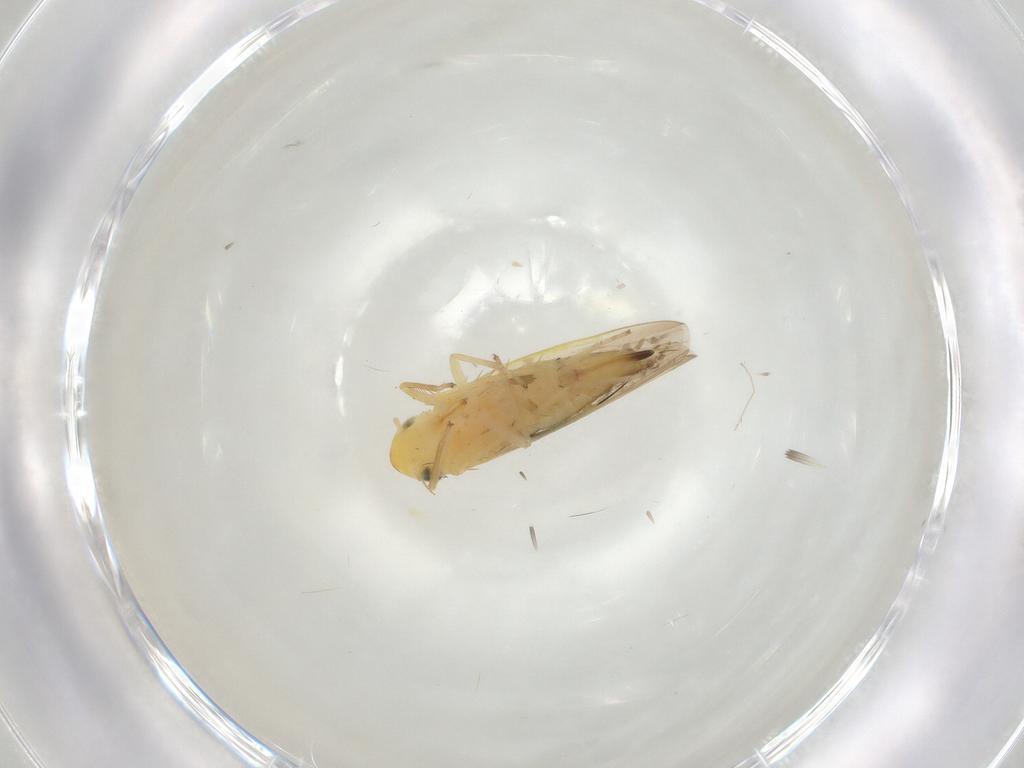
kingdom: Animalia
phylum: Arthropoda
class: Insecta
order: Hemiptera
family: Cicadellidae
